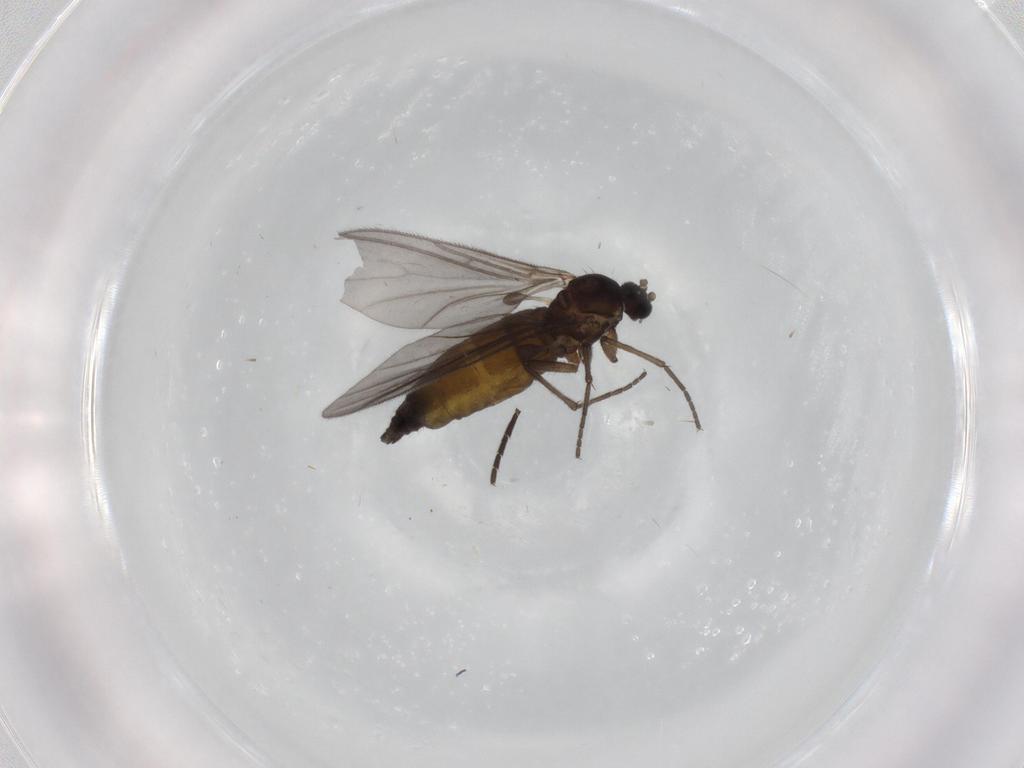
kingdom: Animalia
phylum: Arthropoda
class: Insecta
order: Diptera
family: Sciaridae
